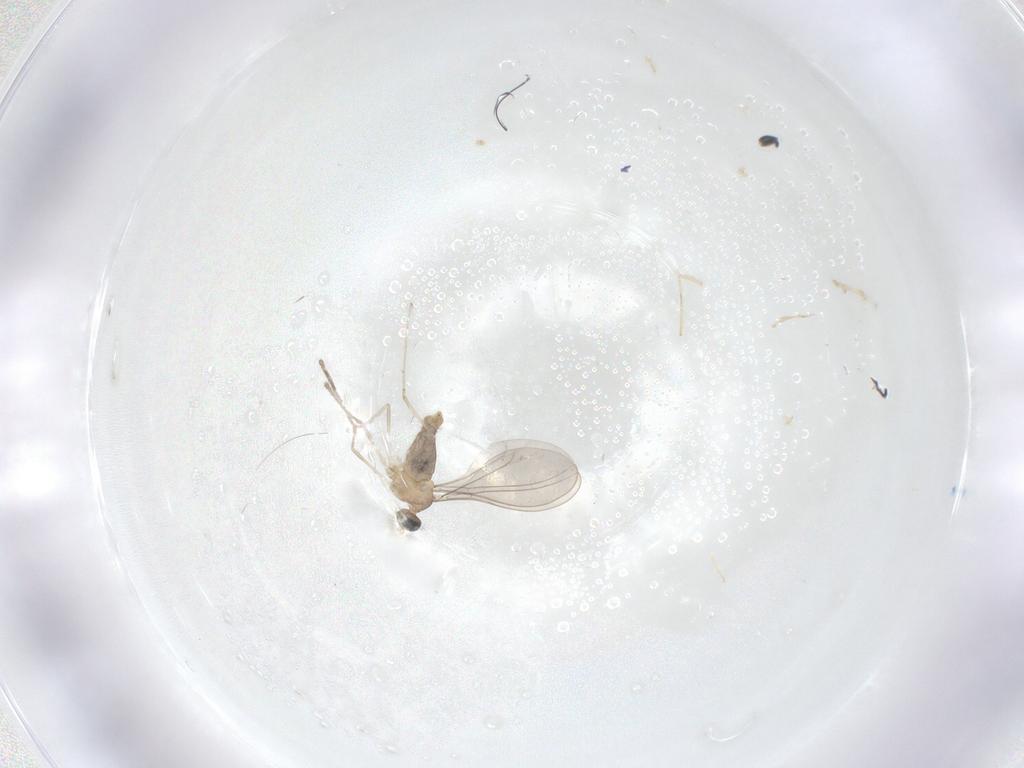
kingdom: Animalia
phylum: Arthropoda
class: Insecta
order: Diptera
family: Cecidomyiidae
